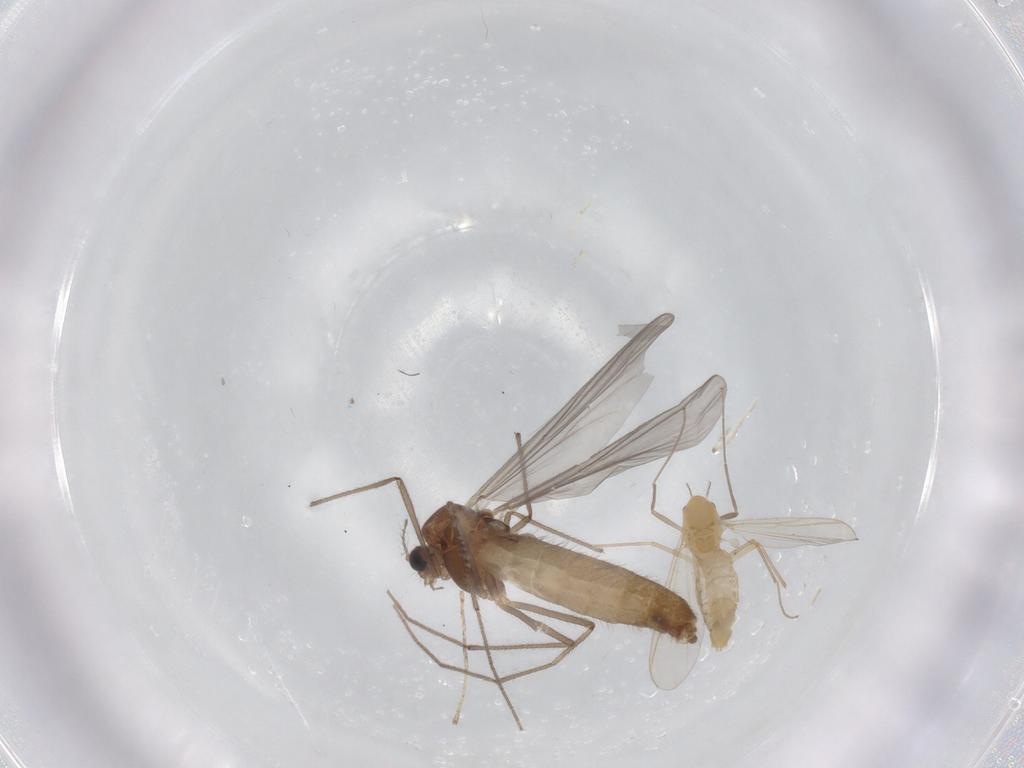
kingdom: Animalia
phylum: Arthropoda
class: Insecta
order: Diptera
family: Chironomidae
